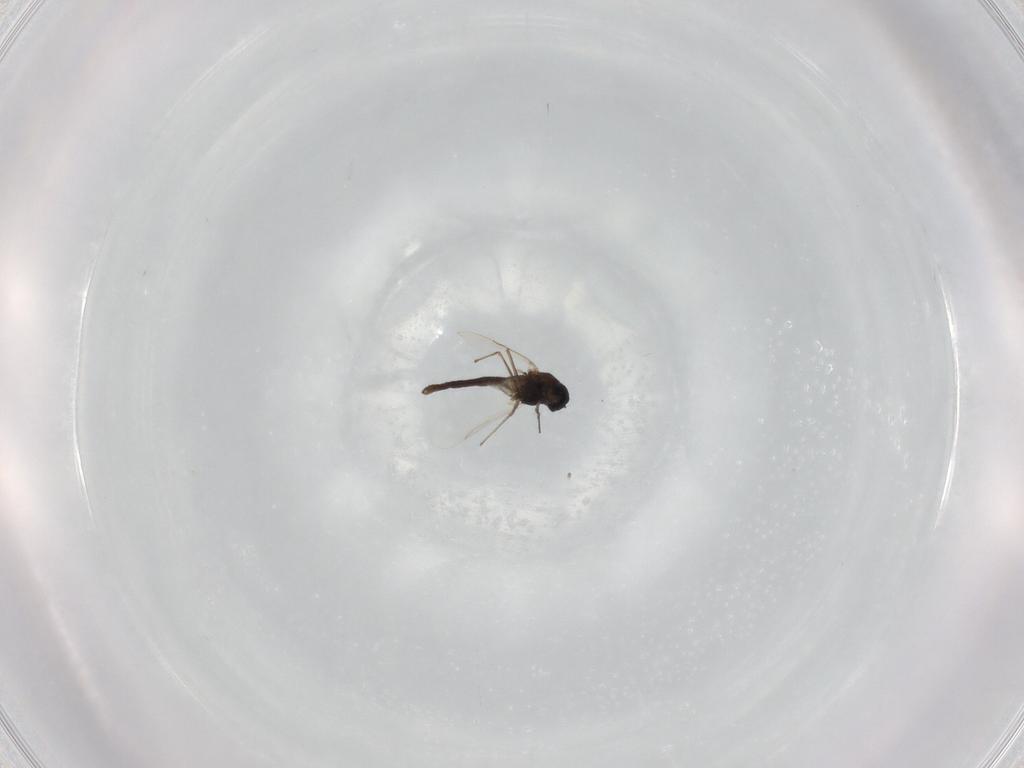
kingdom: Animalia
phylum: Arthropoda
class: Insecta
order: Diptera
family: Chironomidae
